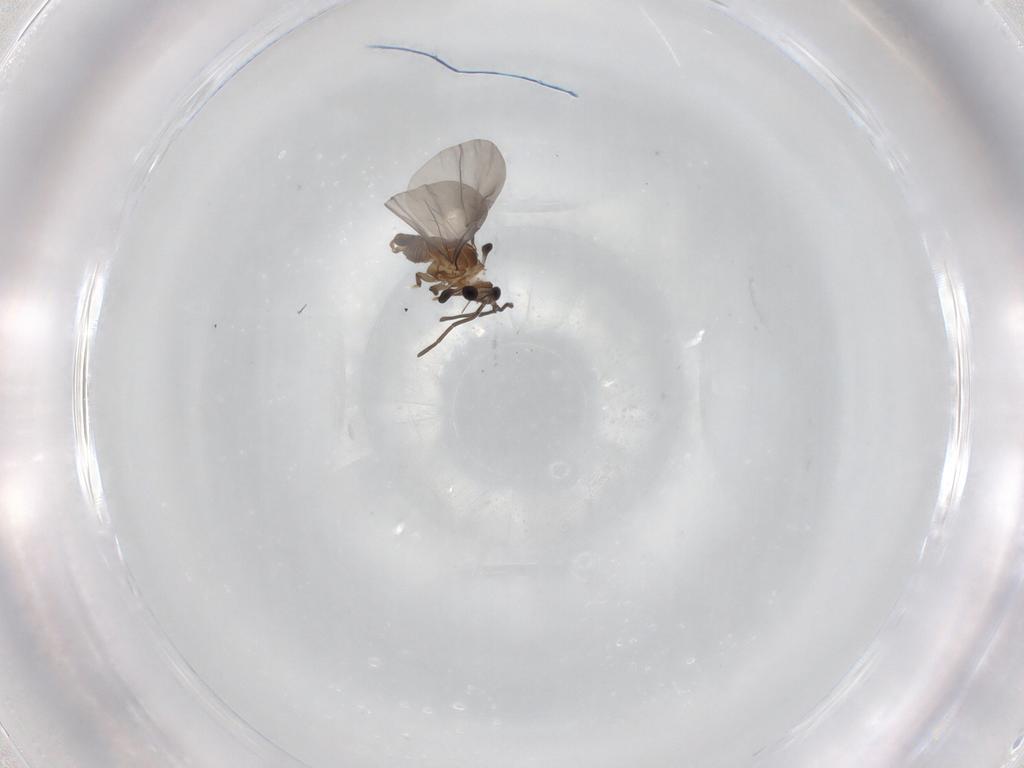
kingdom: Animalia
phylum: Arthropoda
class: Insecta
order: Strepsiptera
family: Myrmecolacidae
